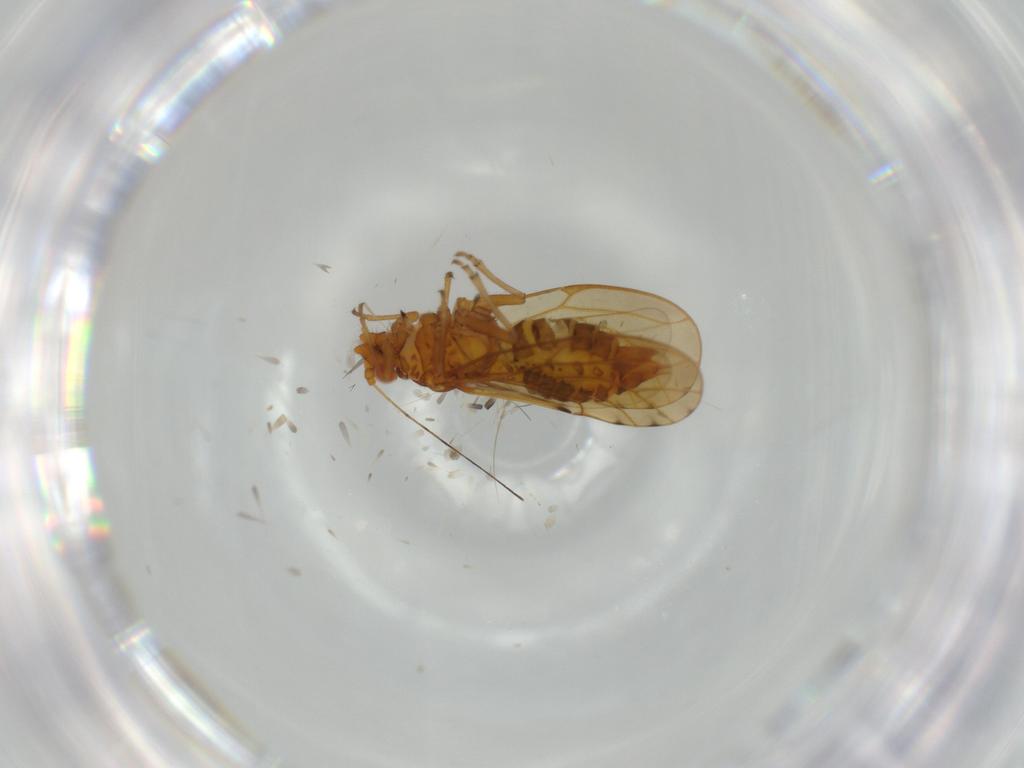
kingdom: Animalia
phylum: Arthropoda
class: Insecta
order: Hemiptera
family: Psylloidea_incertae_sedis
